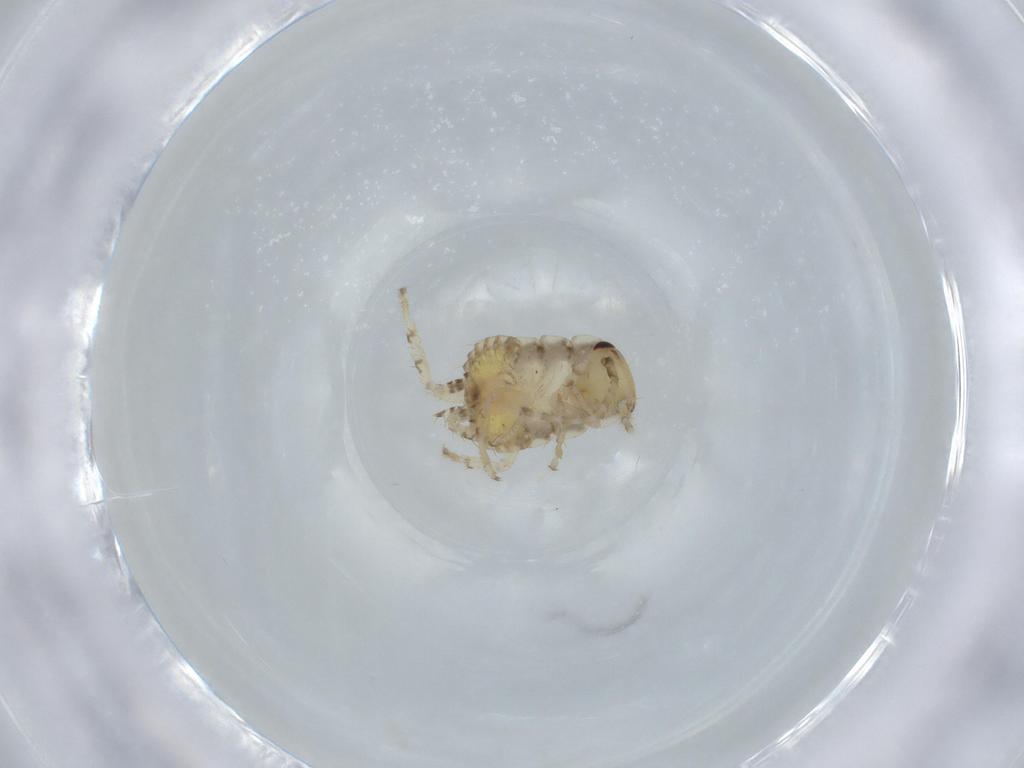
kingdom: Animalia
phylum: Arthropoda
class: Insecta
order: Blattodea
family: Ectobiidae
